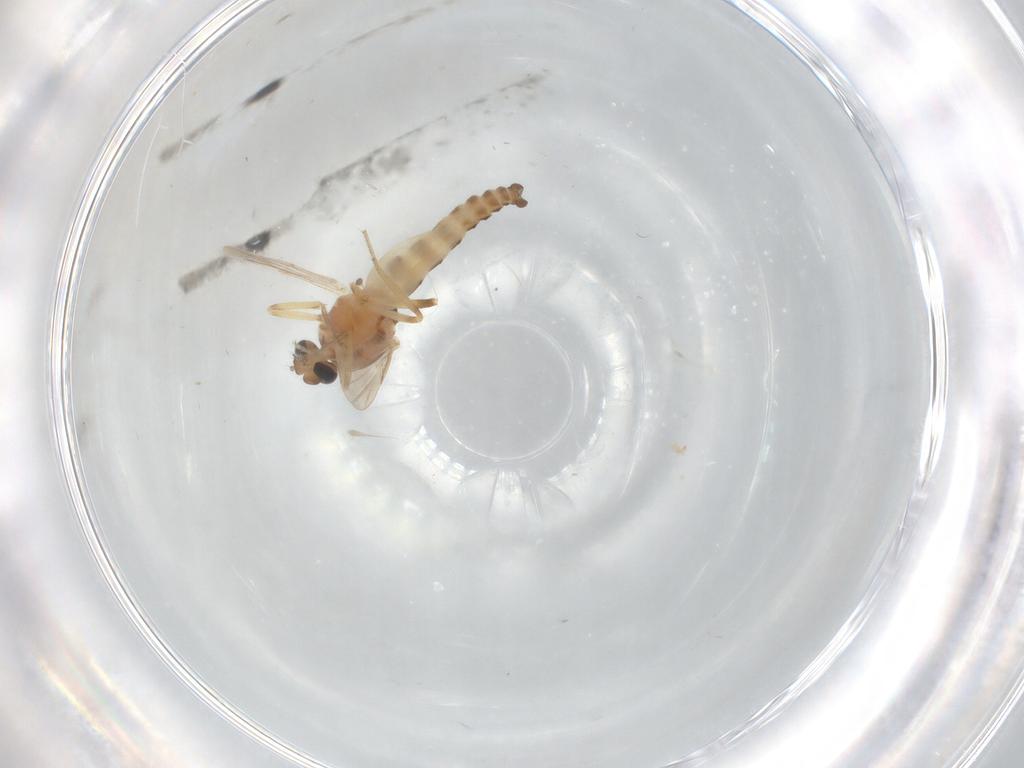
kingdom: Animalia
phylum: Arthropoda
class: Insecta
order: Diptera
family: Ceratopogonidae
